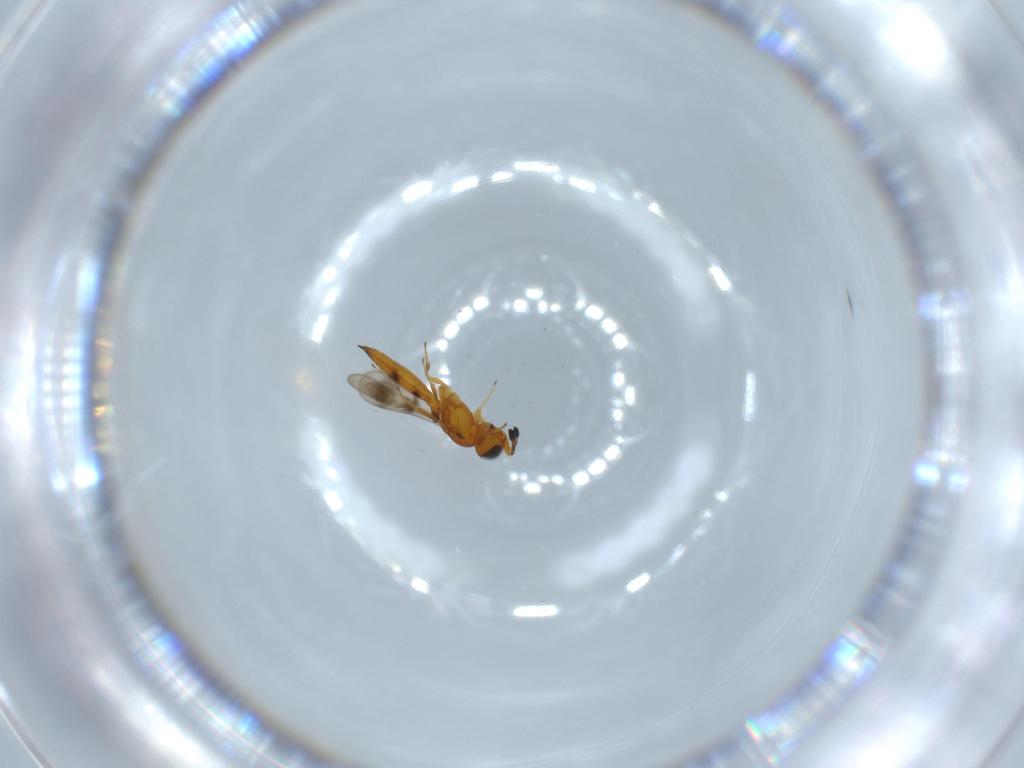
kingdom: Animalia
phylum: Arthropoda
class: Insecta
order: Hymenoptera
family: Scelionidae
